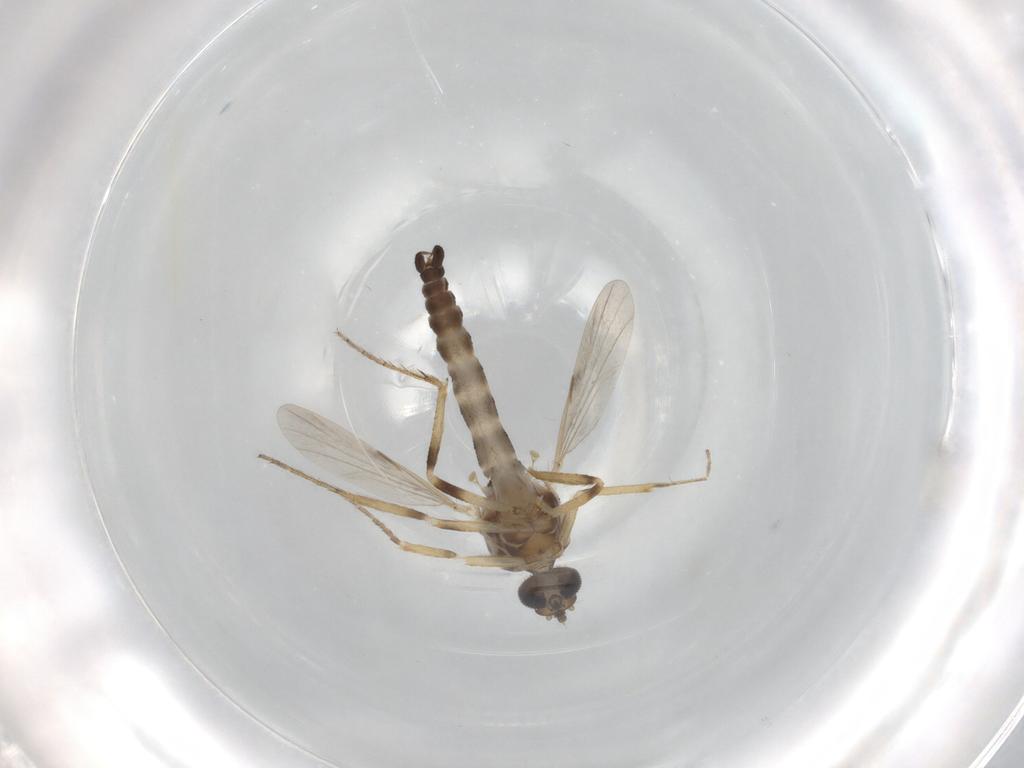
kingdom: Animalia
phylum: Arthropoda
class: Insecta
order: Diptera
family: Ceratopogonidae
